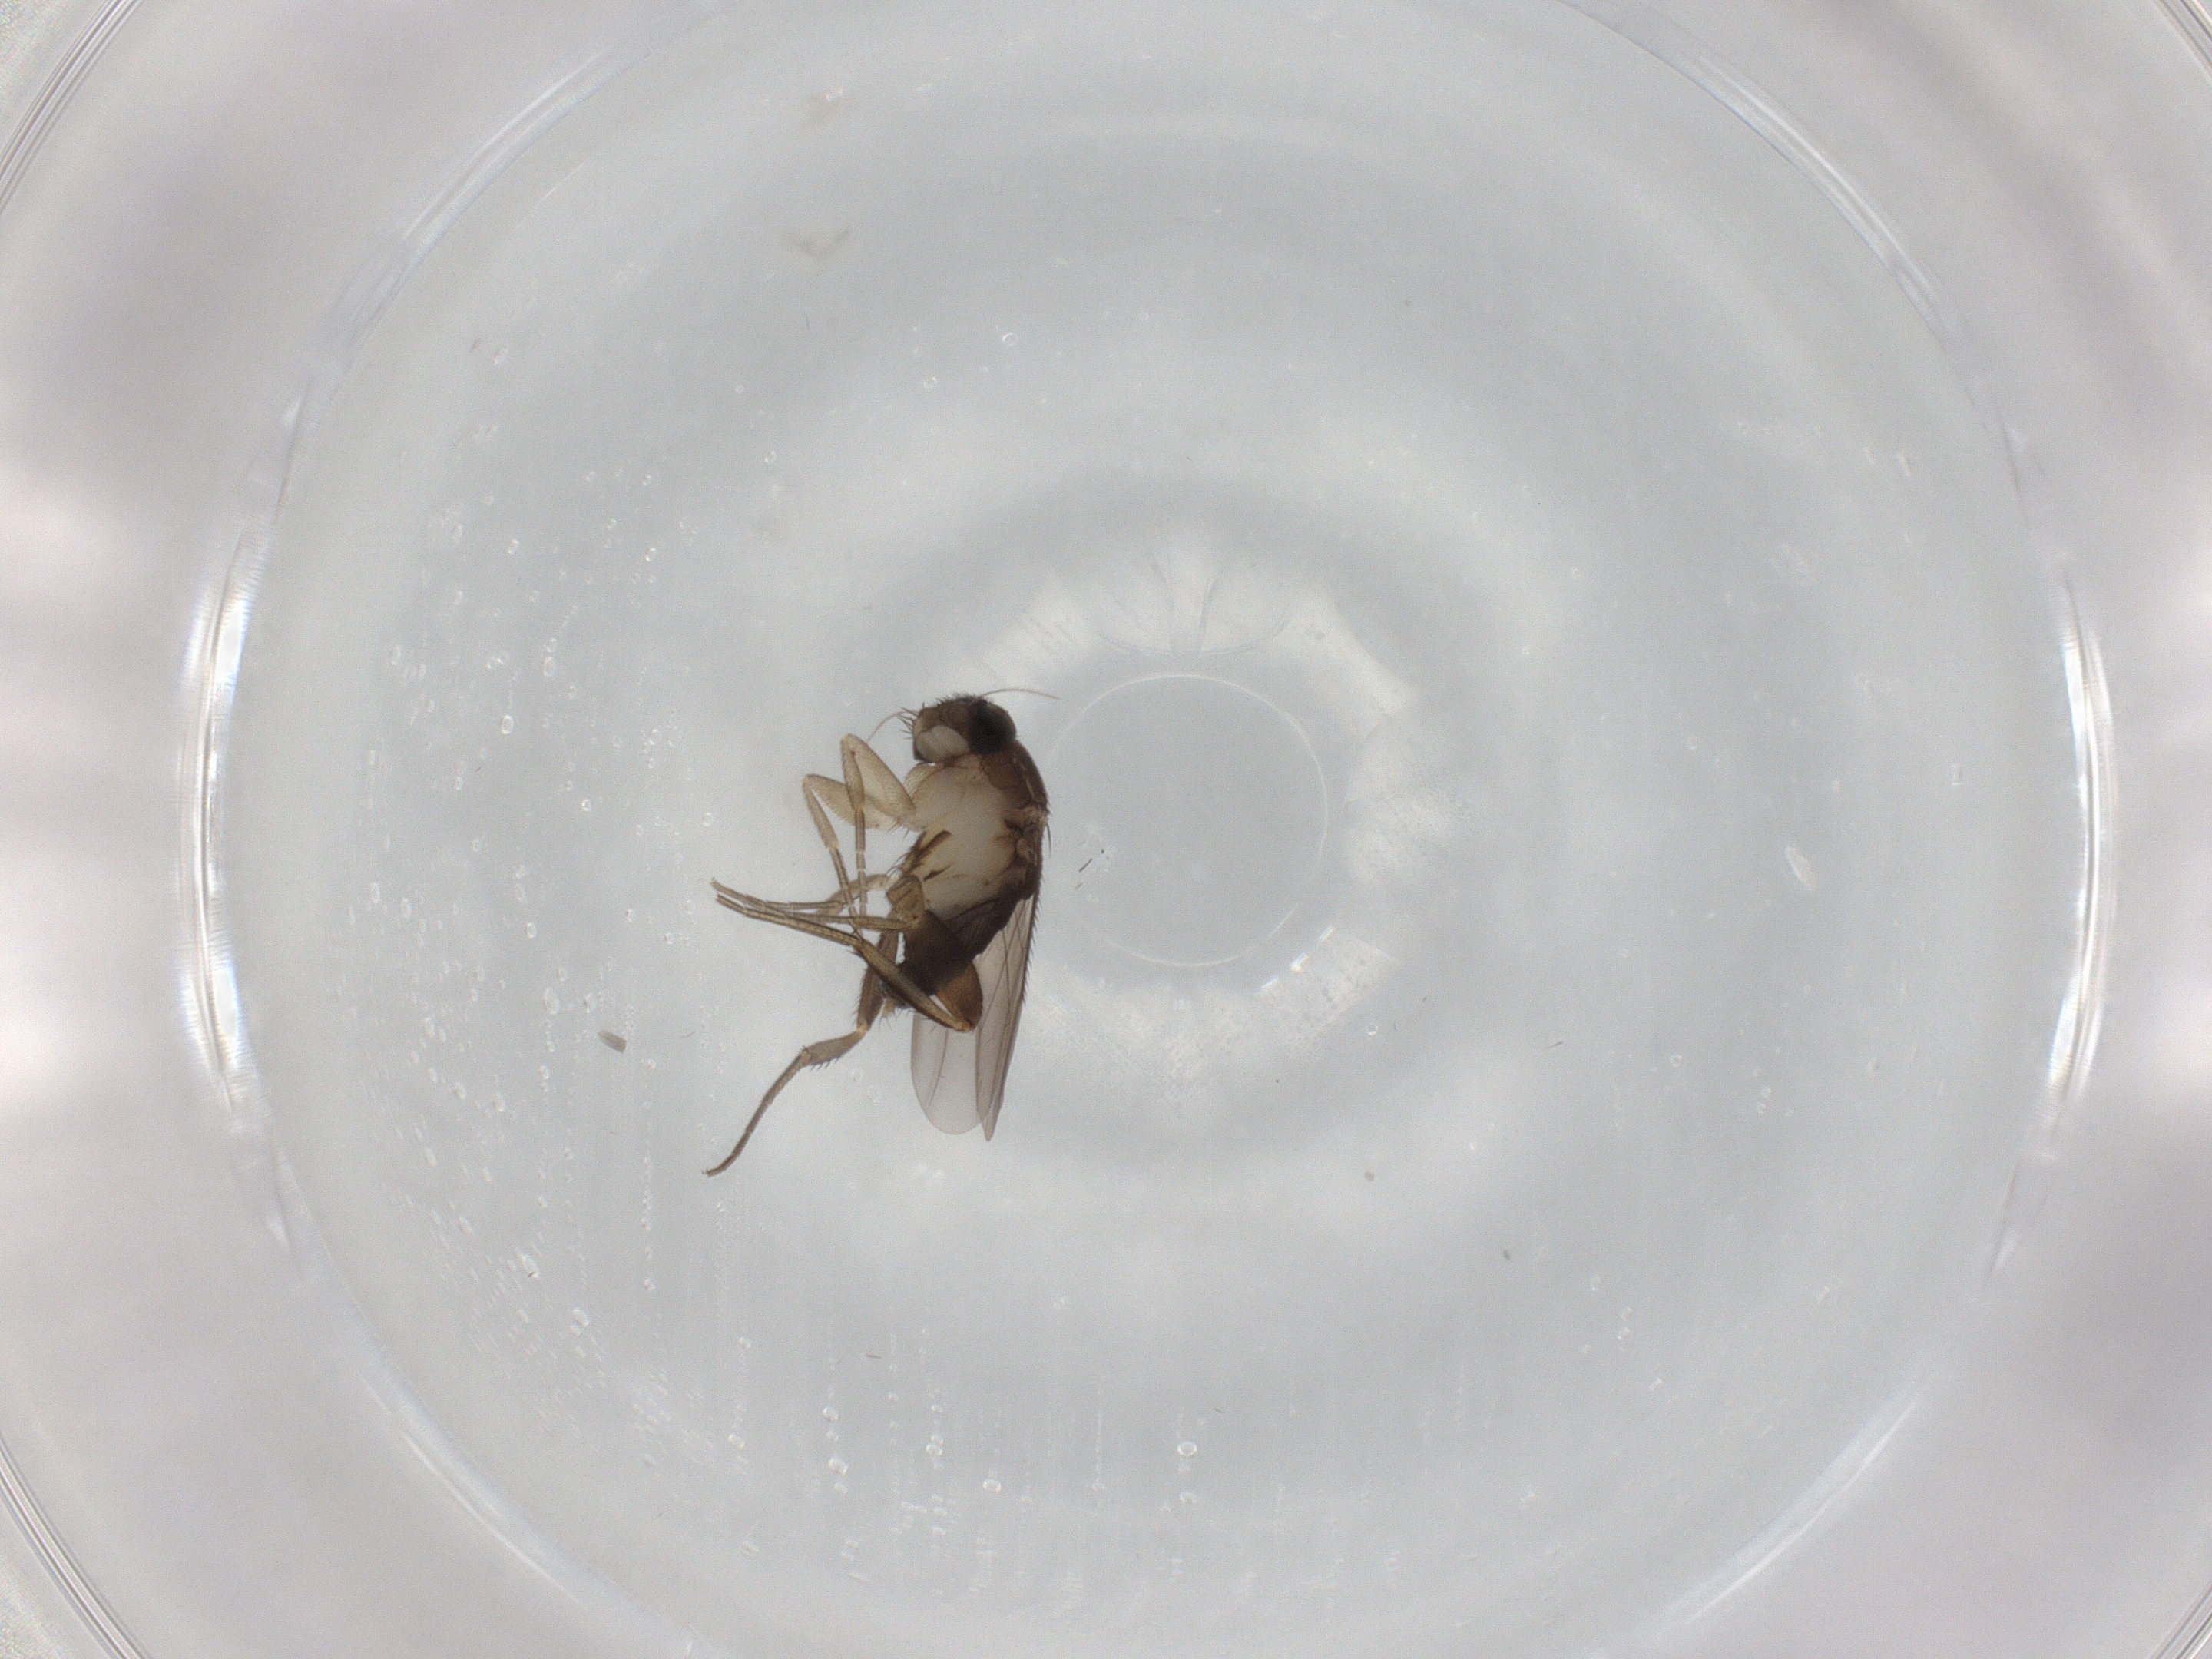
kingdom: Animalia
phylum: Arthropoda
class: Insecta
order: Diptera
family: Phoridae
